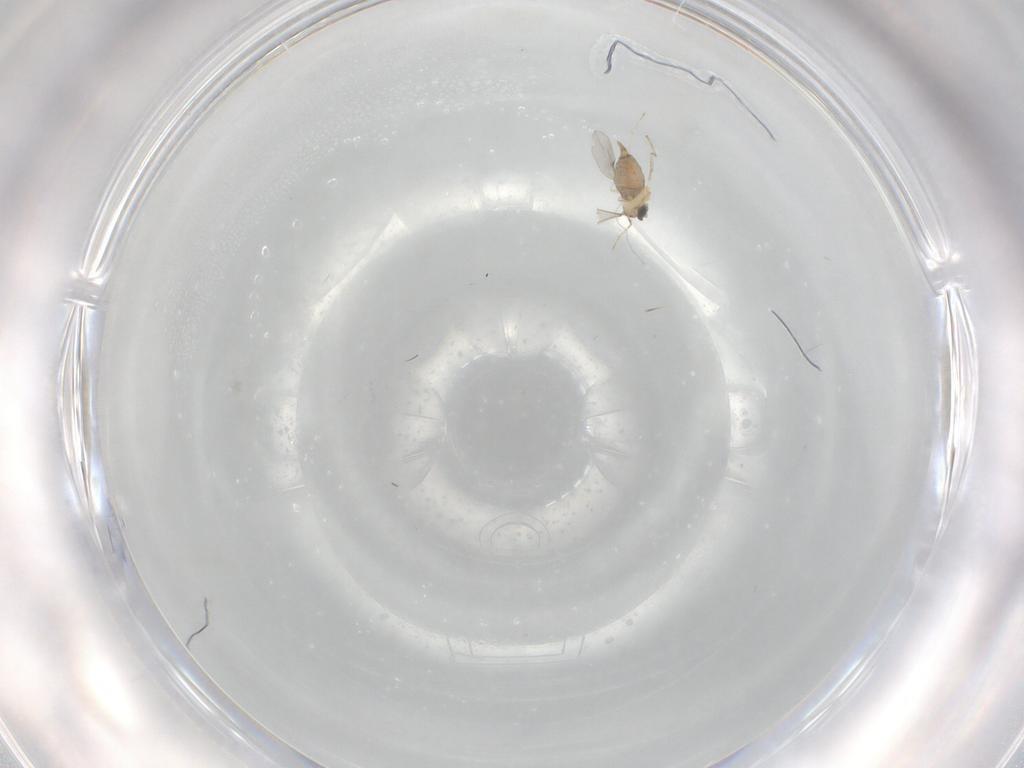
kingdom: Animalia
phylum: Arthropoda
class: Insecta
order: Diptera
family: Cecidomyiidae
